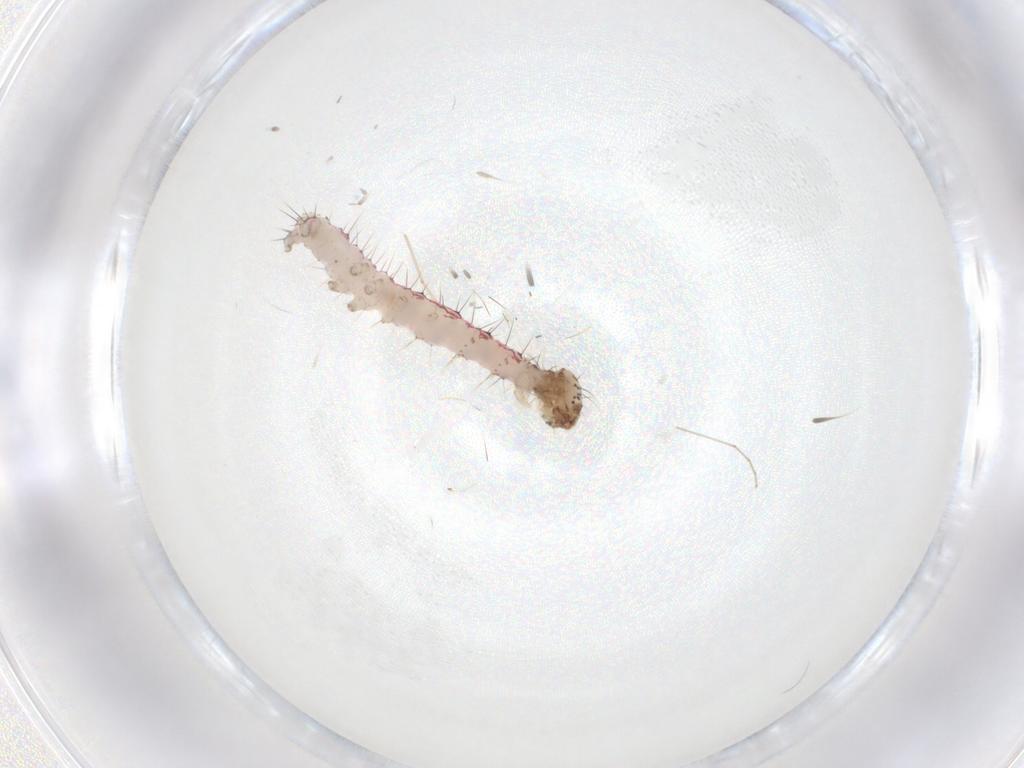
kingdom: Animalia
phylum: Arthropoda
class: Insecta
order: Lepidoptera
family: Erebidae
